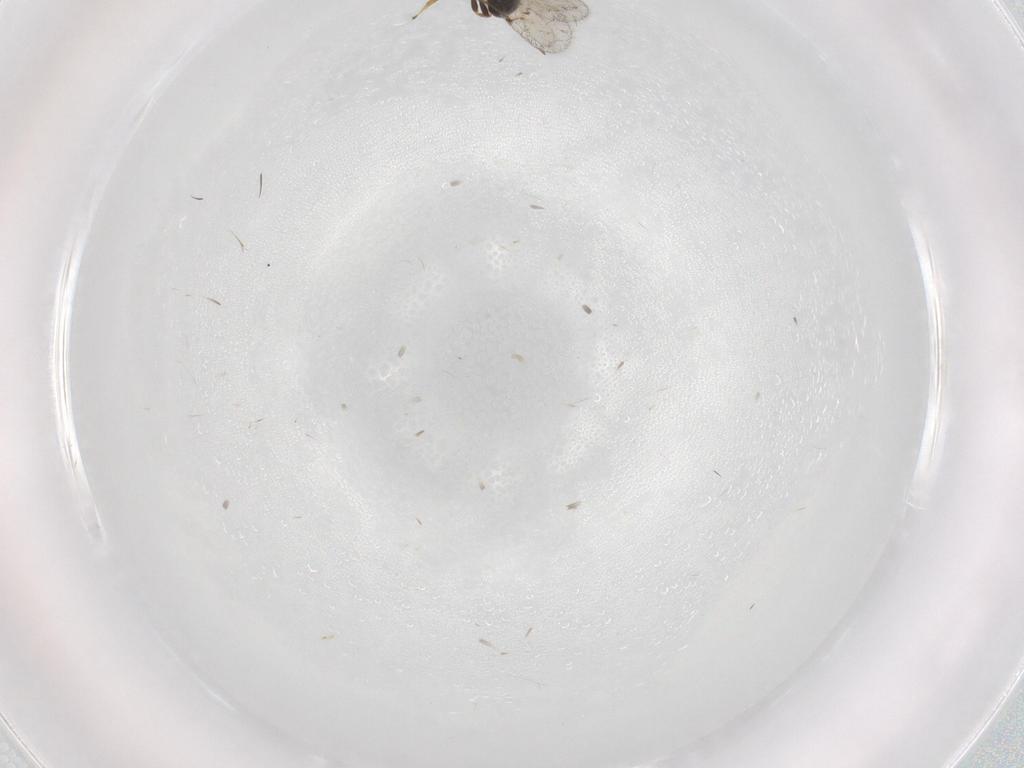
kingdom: Animalia
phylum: Arthropoda
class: Insecta
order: Hymenoptera
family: Scelionidae
